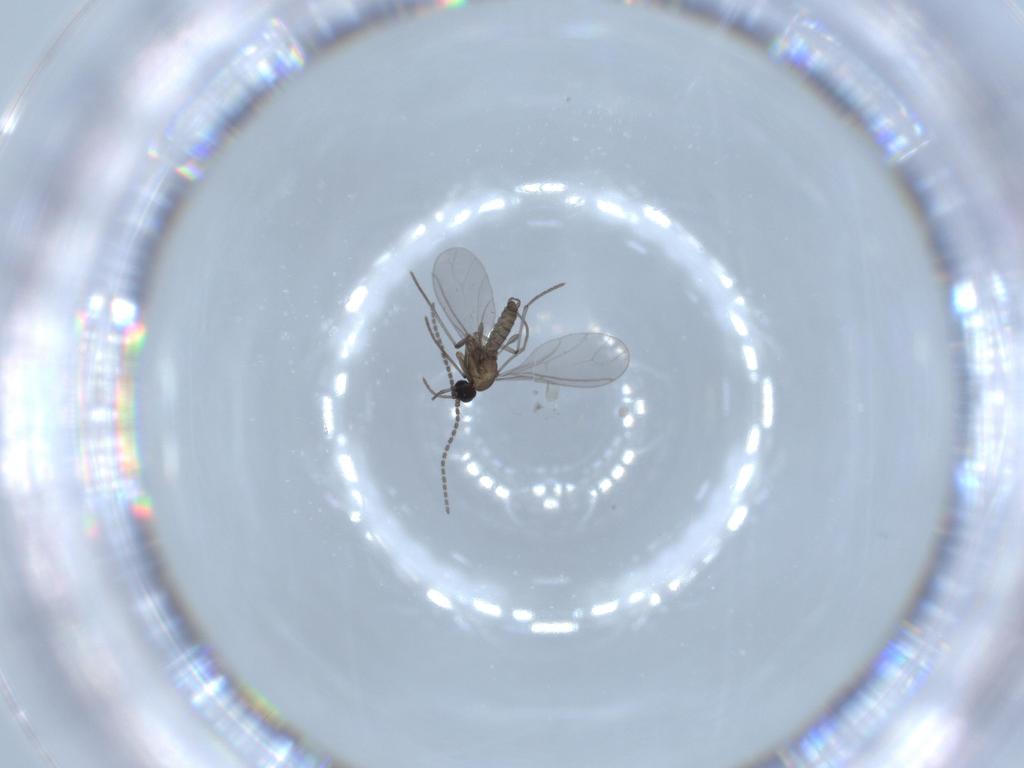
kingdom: Animalia
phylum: Arthropoda
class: Insecta
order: Diptera
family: Sciaridae
